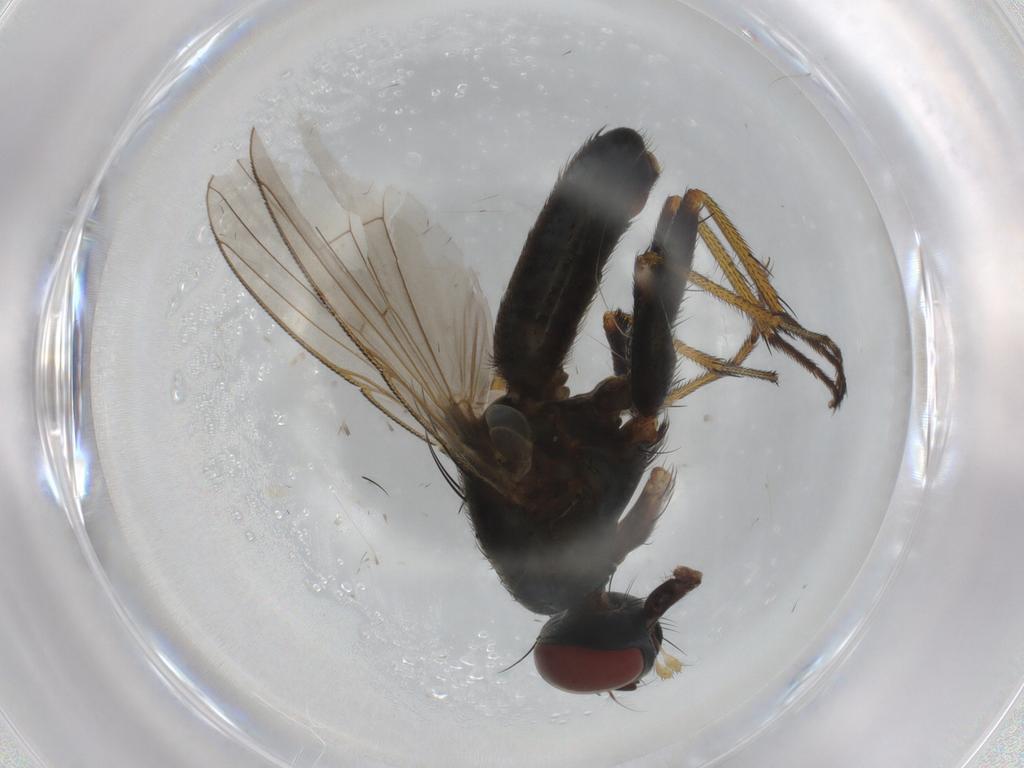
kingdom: Animalia
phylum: Arthropoda
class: Insecta
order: Diptera
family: Muscidae
